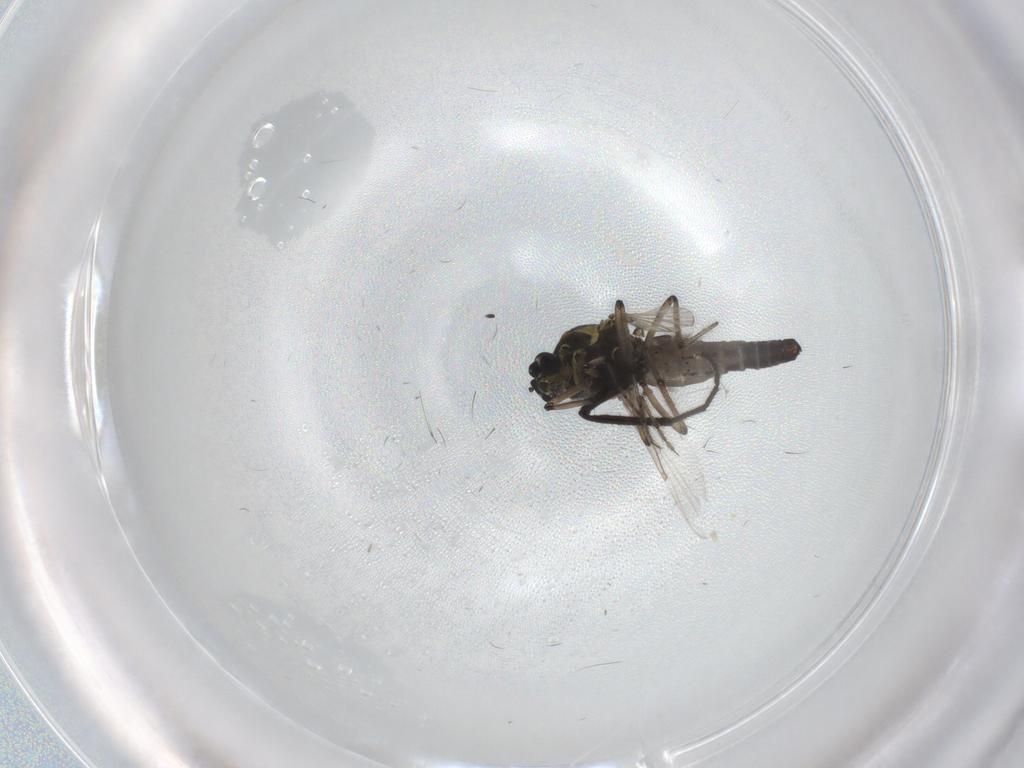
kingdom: Animalia
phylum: Arthropoda
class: Insecta
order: Diptera
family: Ceratopogonidae
